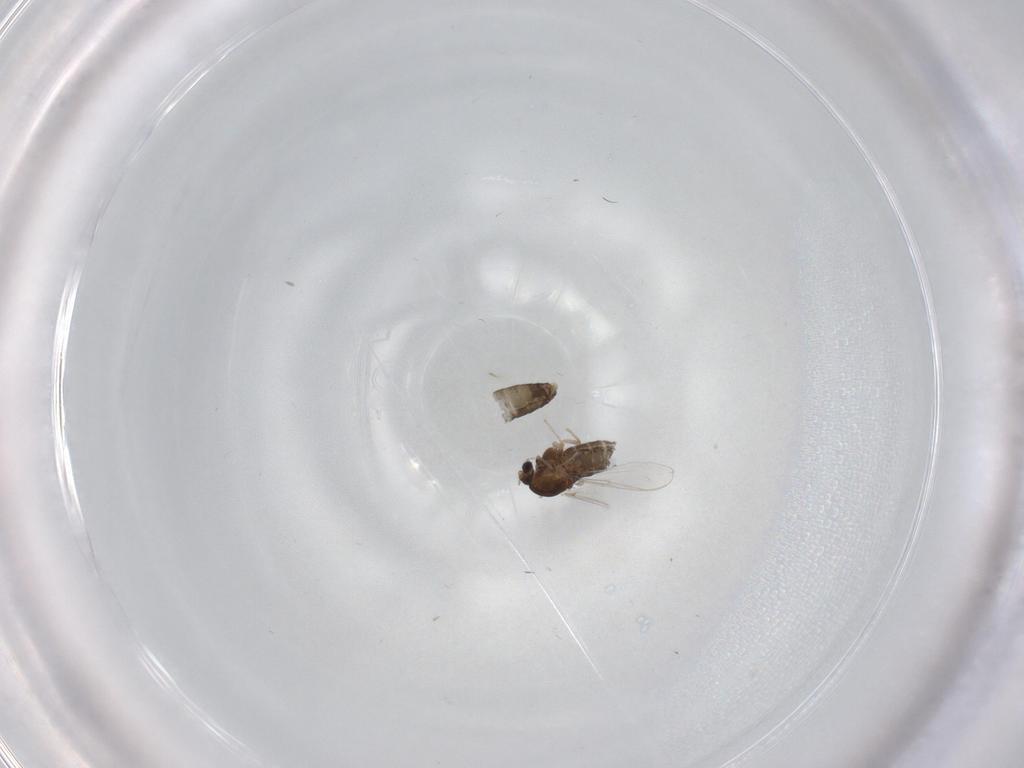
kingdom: Animalia
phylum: Arthropoda
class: Insecta
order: Diptera
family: Chironomidae
